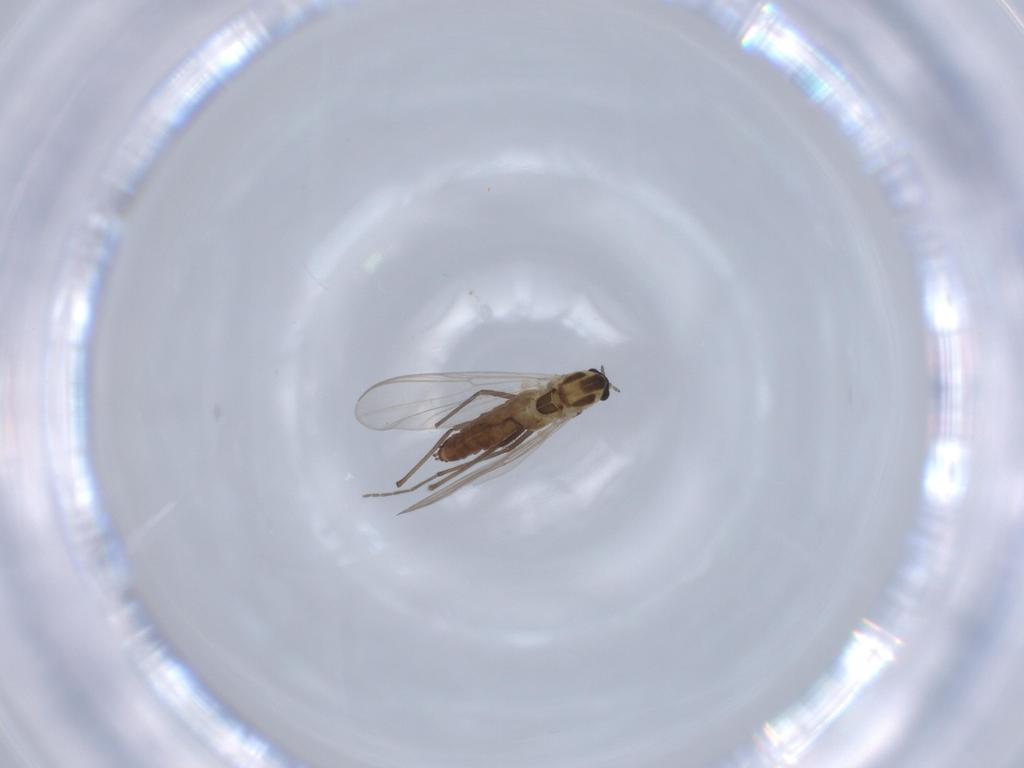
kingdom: Animalia
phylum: Arthropoda
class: Insecta
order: Diptera
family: Chironomidae
